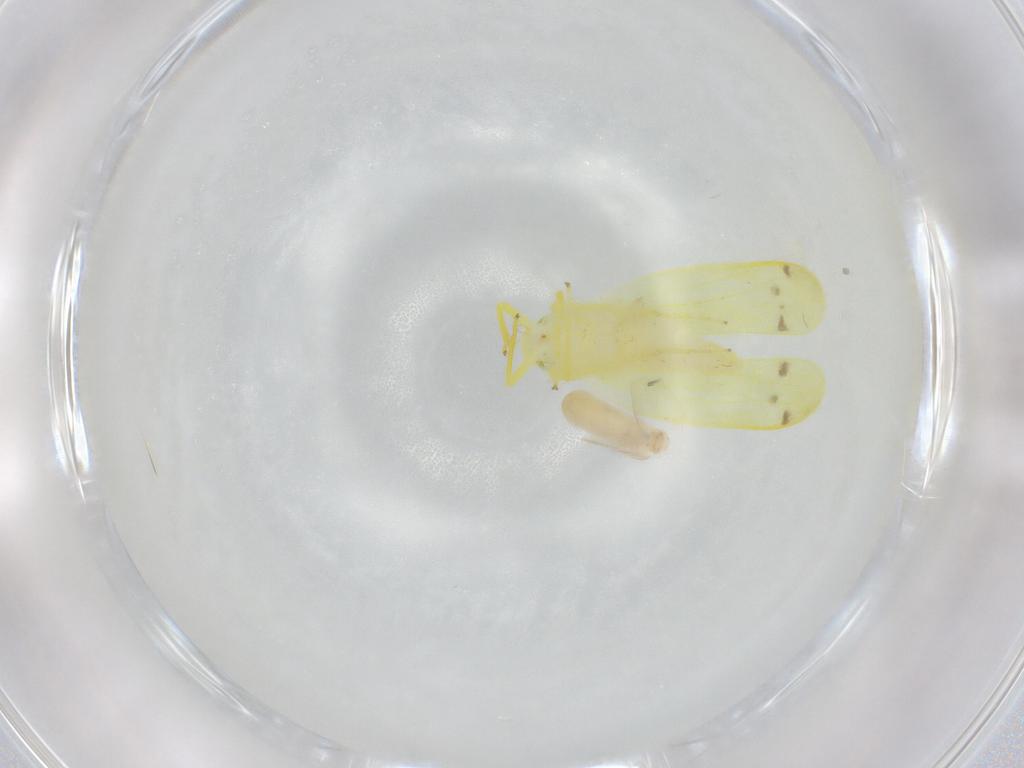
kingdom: Animalia
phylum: Arthropoda
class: Insecta
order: Hemiptera
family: Cicadellidae
